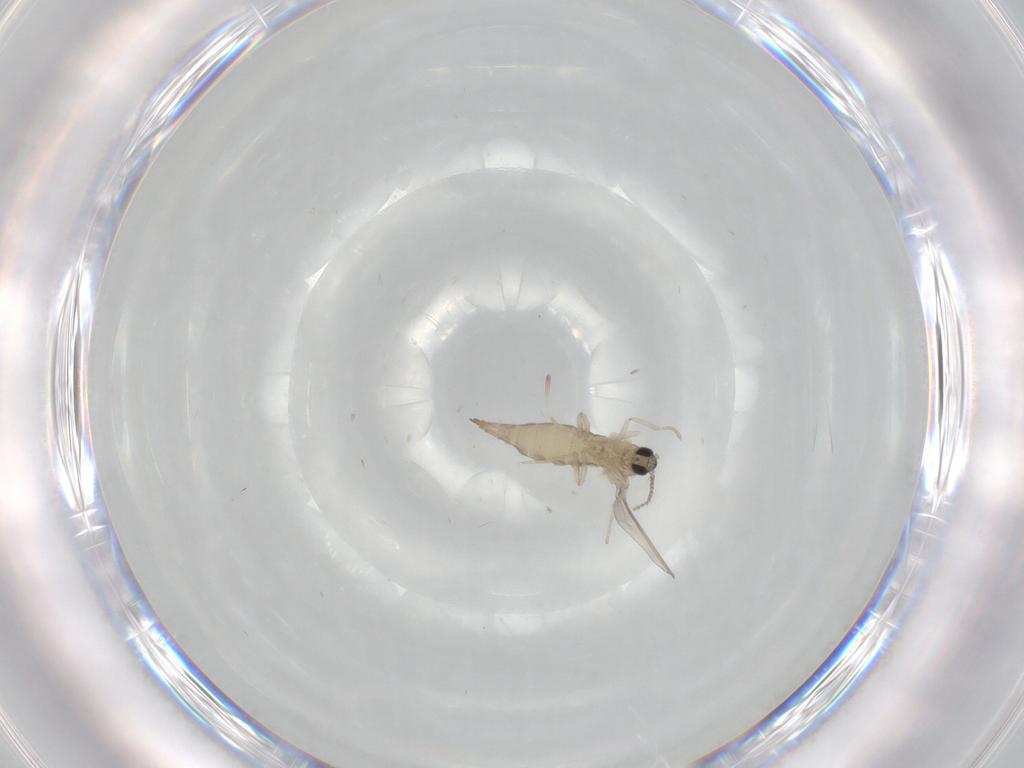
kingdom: Animalia
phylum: Arthropoda
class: Insecta
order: Diptera
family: Cecidomyiidae
